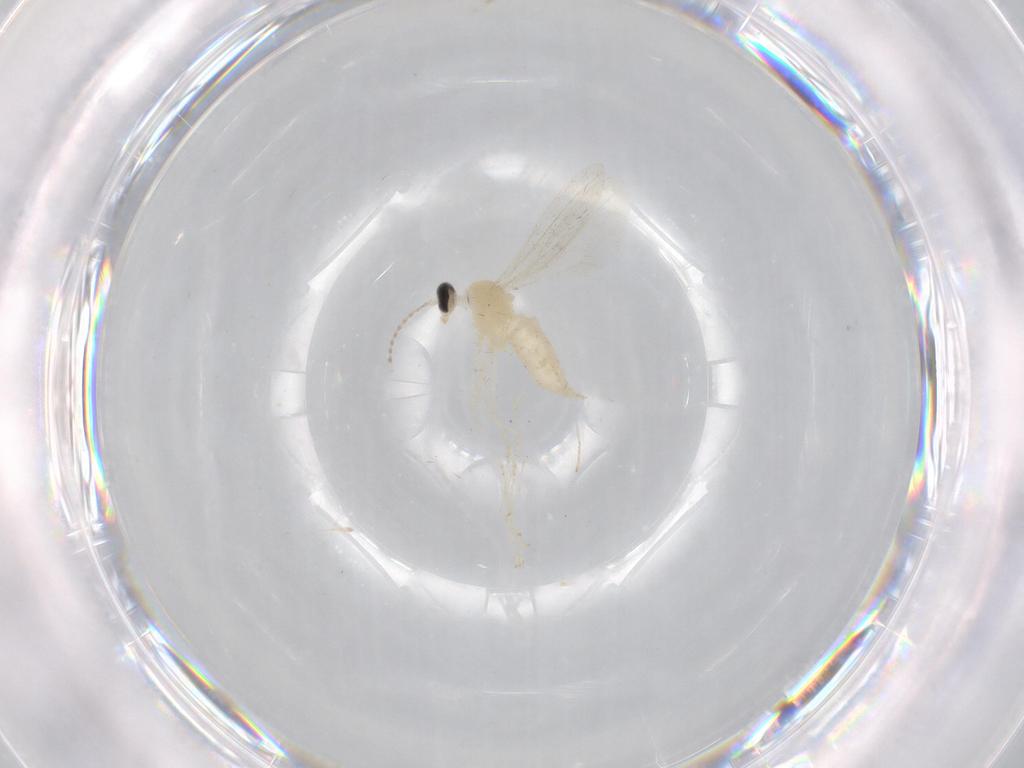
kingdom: Animalia
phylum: Arthropoda
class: Insecta
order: Diptera
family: Cecidomyiidae
